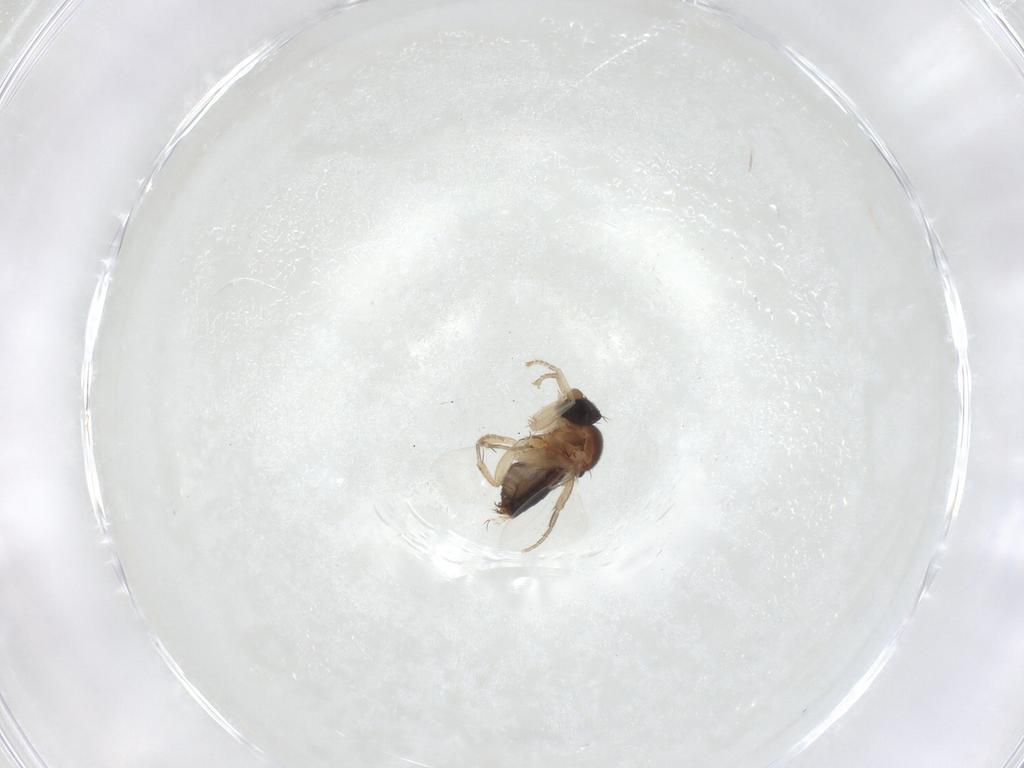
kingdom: Animalia
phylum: Arthropoda
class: Insecta
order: Diptera
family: Phoridae
